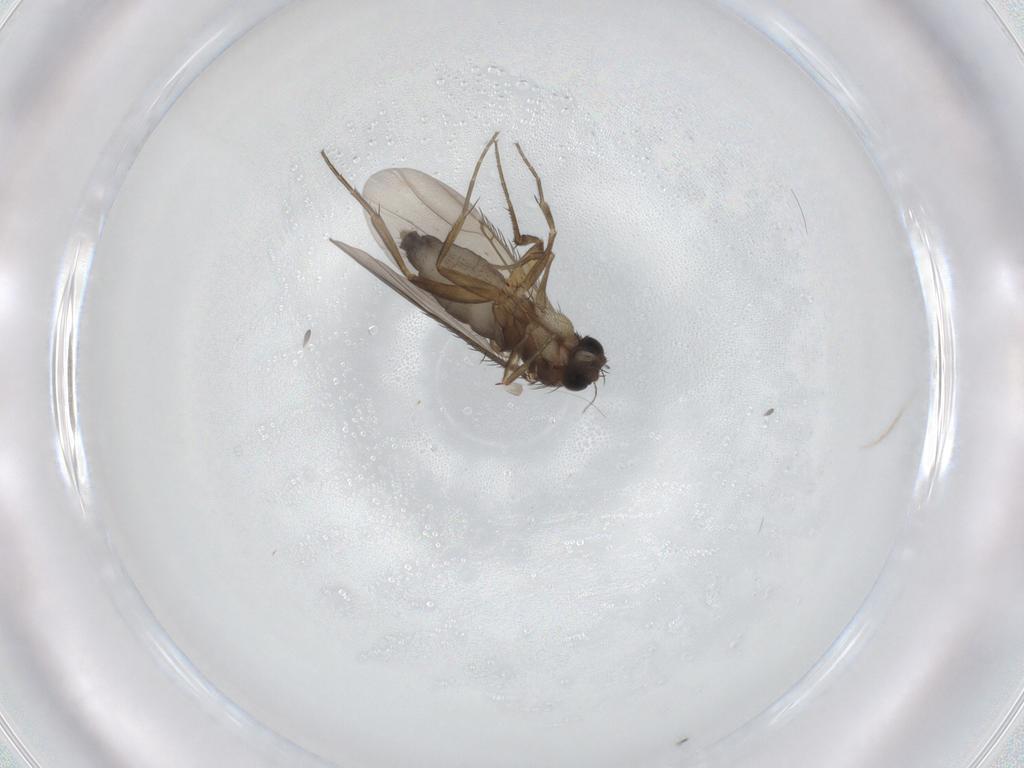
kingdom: Animalia
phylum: Arthropoda
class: Insecta
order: Diptera
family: Phoridae
